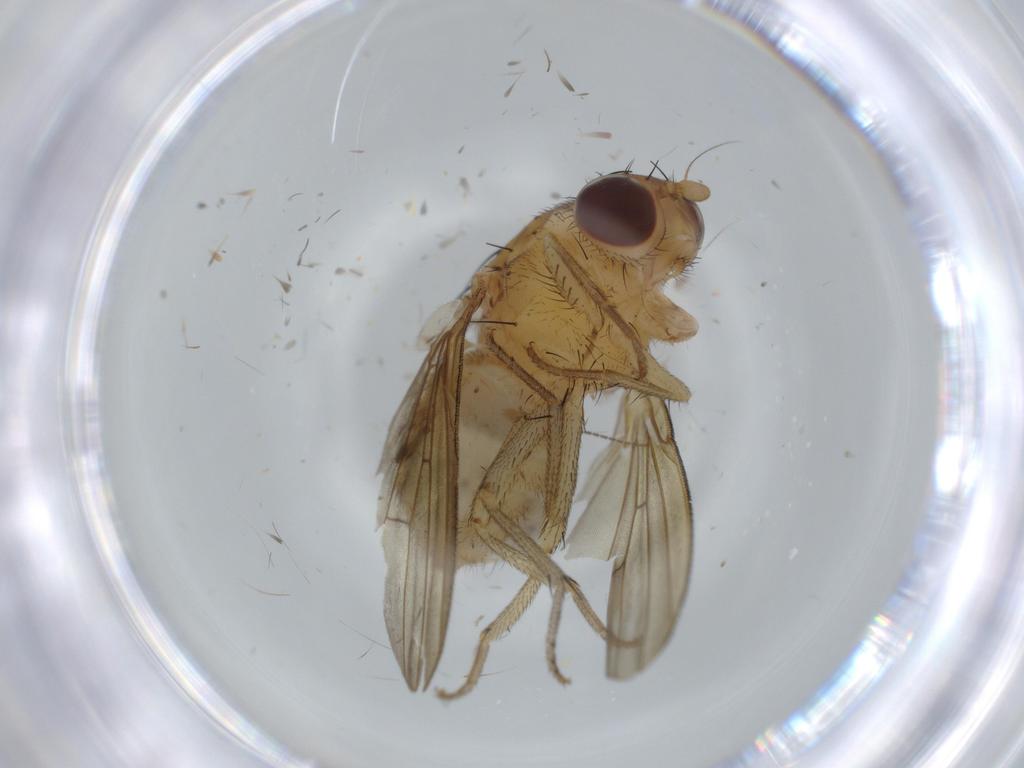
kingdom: Animalia
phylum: Arthropoda
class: Insecta
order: Diptera
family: Sciaridae
